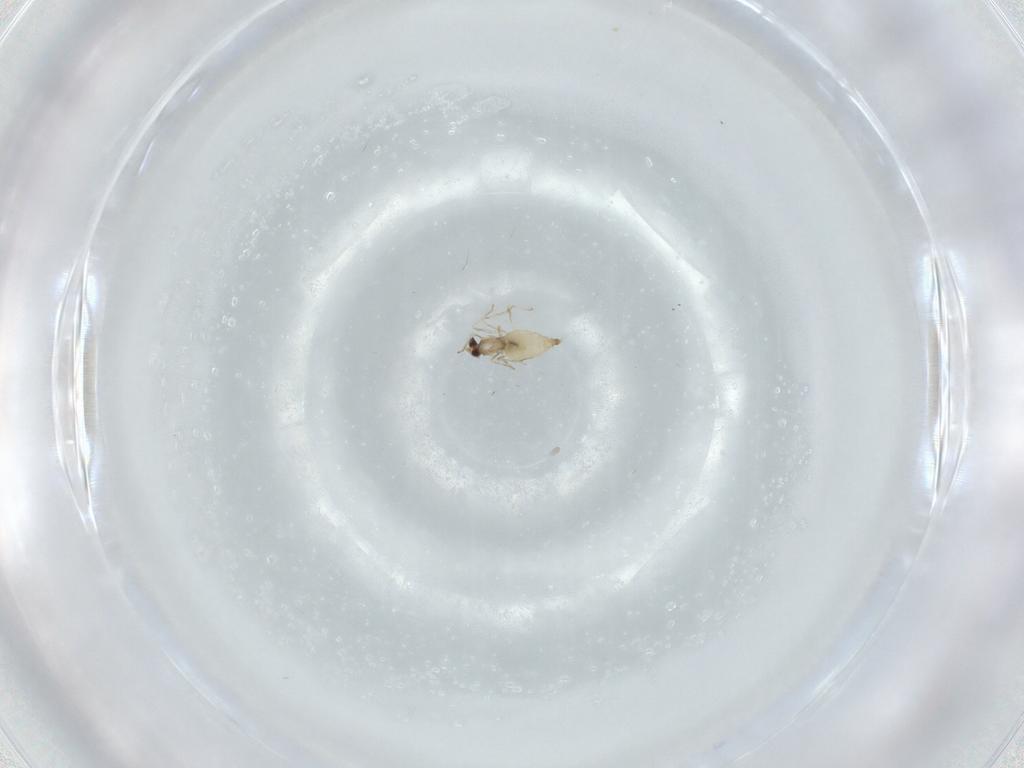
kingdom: Animalia
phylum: Arthropoda
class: Insecta
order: Diptera
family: Cecidomyiidae
